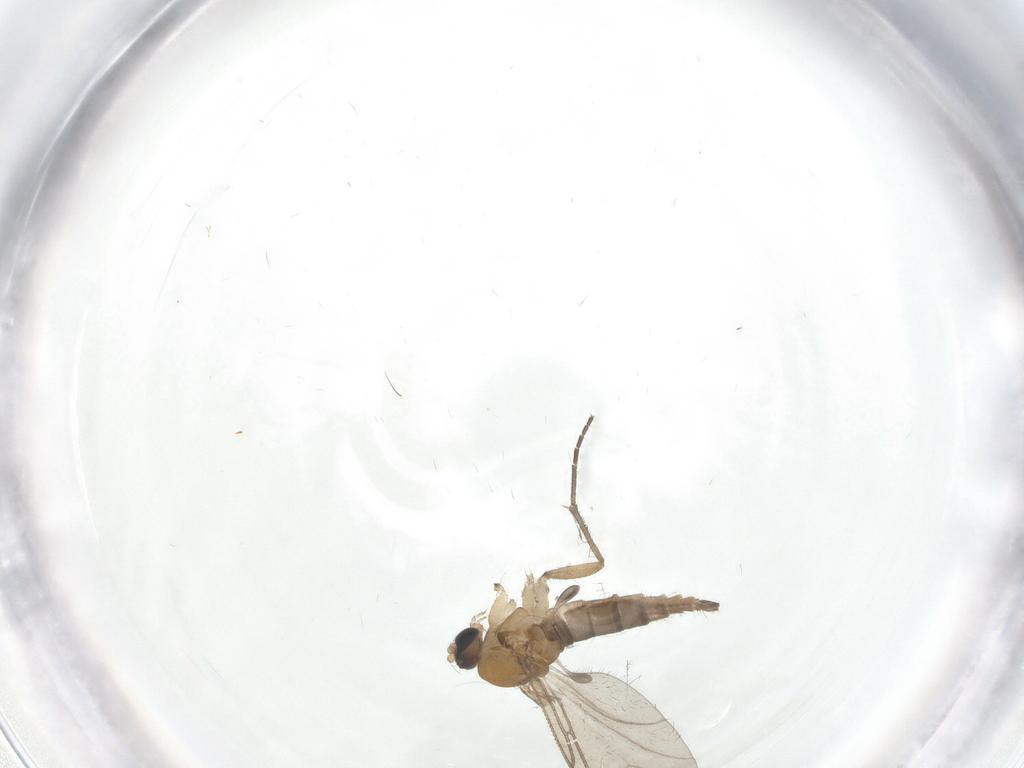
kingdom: Animalia
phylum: Arthropoda
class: Insecta
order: Diptera
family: Sciaridae
